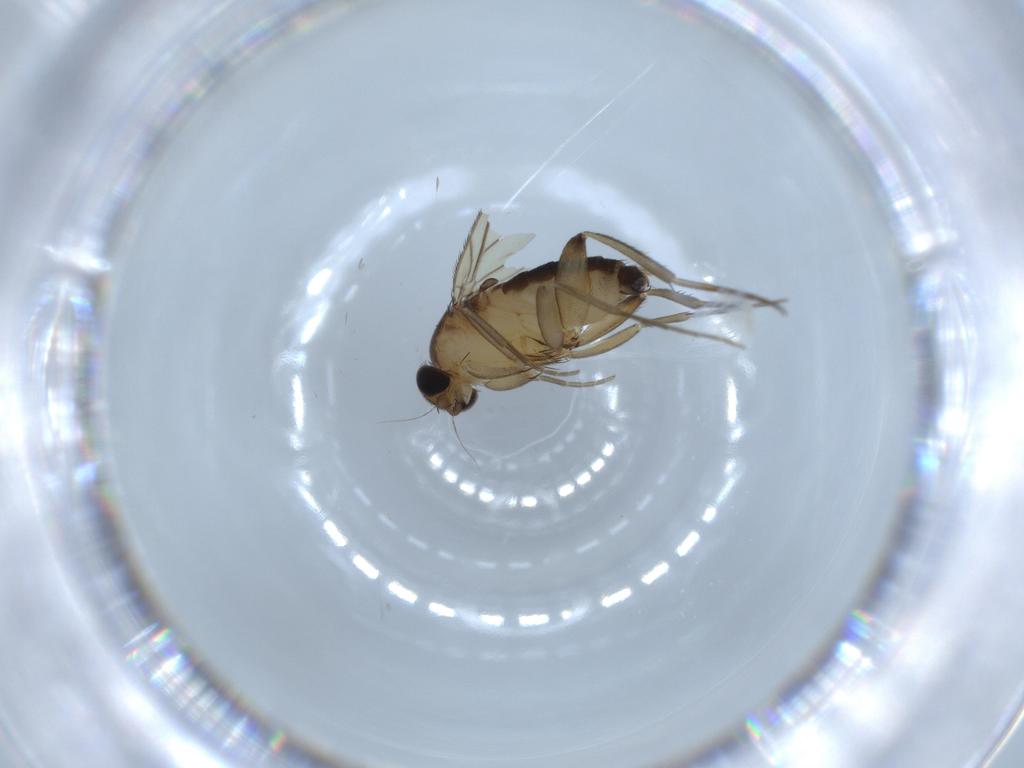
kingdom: Animalia
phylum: Arthropoda
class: Insecta
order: Diptera
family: Phoridae
